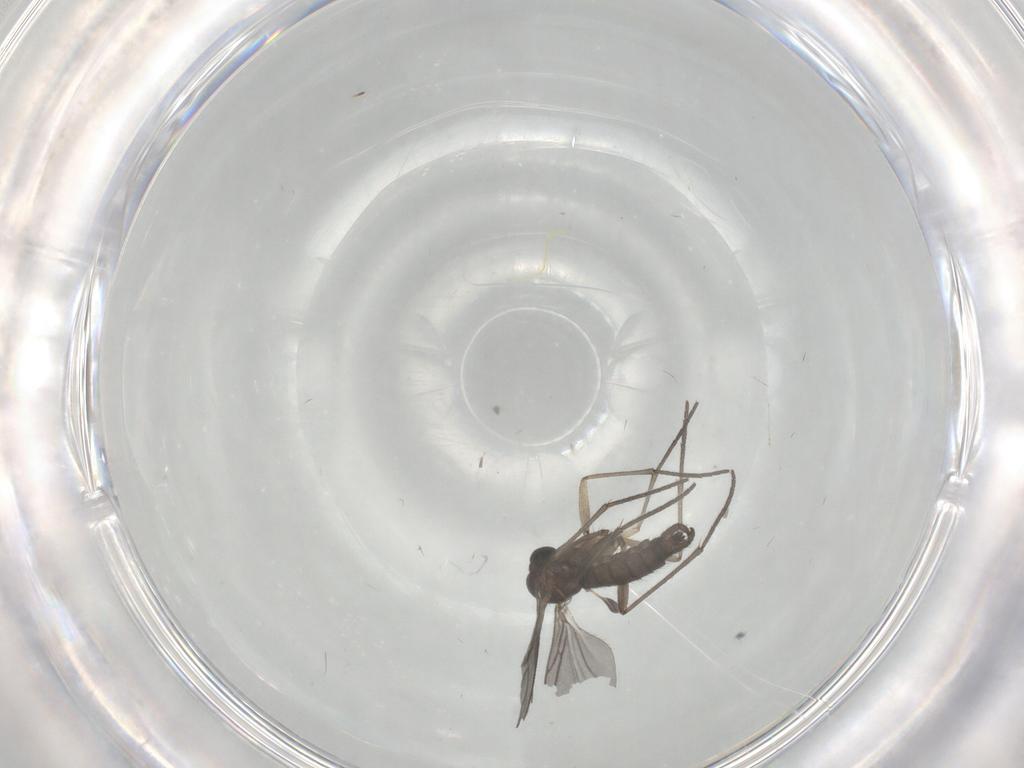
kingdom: Animalia
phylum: Arthropoda
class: Insecta
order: Diptera
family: Sciaridae
